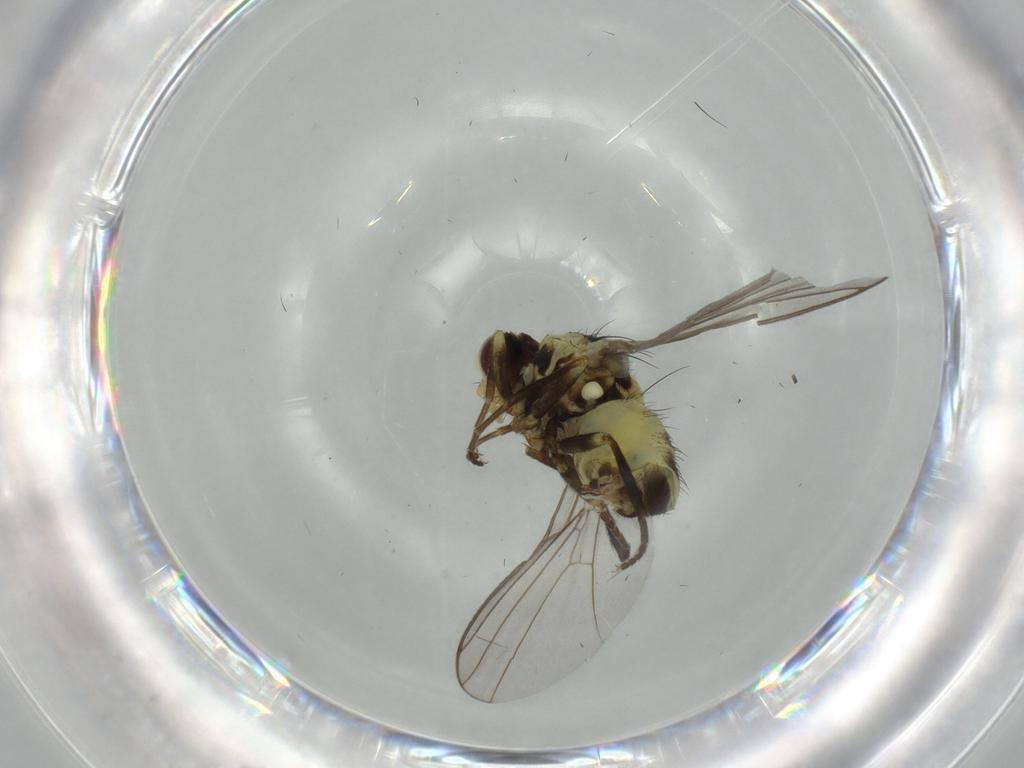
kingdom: Animalia
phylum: Arthropoda
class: Insecta
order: Diptera
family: Agromyzidae
